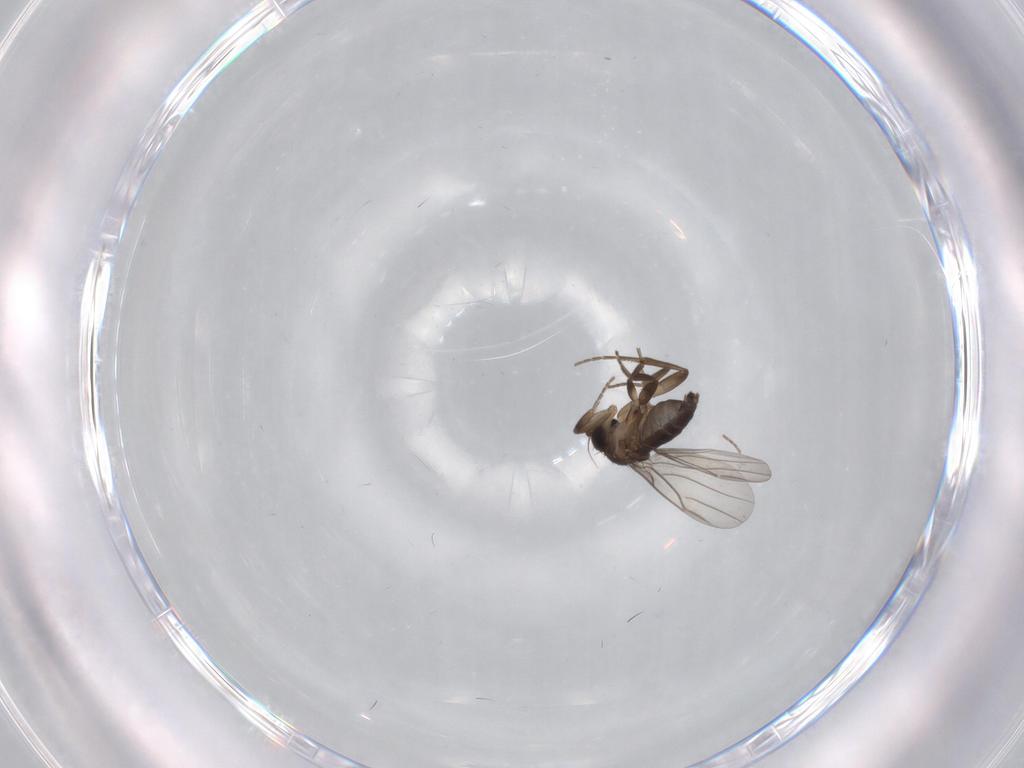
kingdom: Animalia
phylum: Arthropoda
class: Insecta
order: Diptera
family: Phoridae
